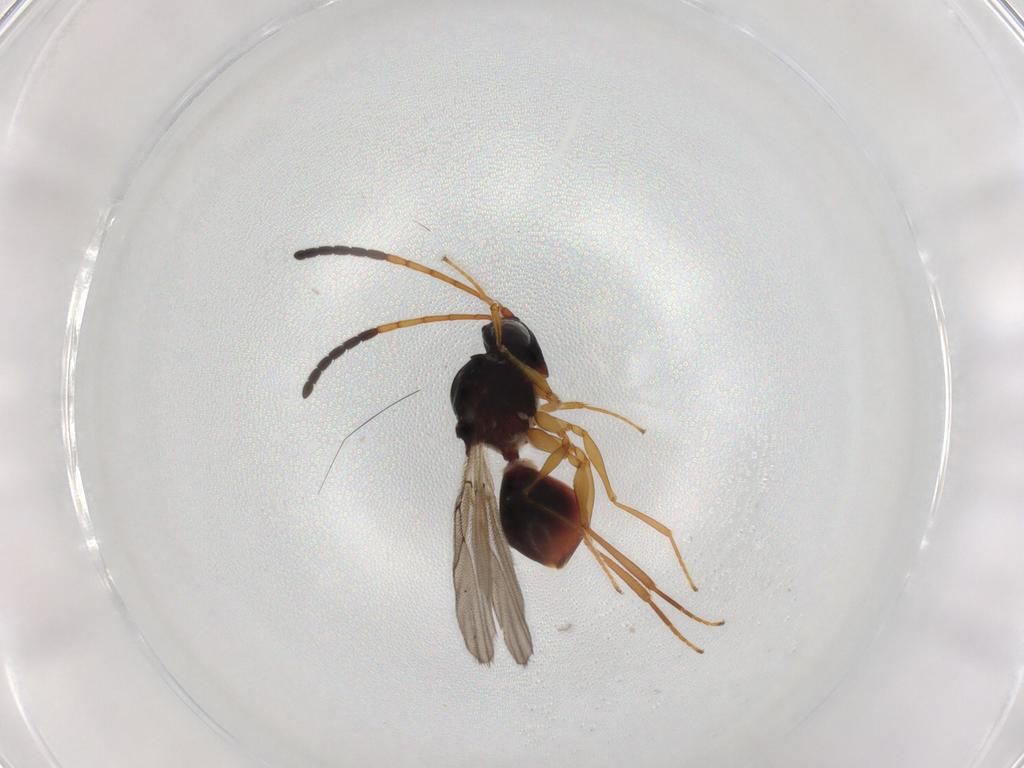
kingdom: Animalia
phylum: Arthropoda
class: Insecta
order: Hymenoptera
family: Figitidae
